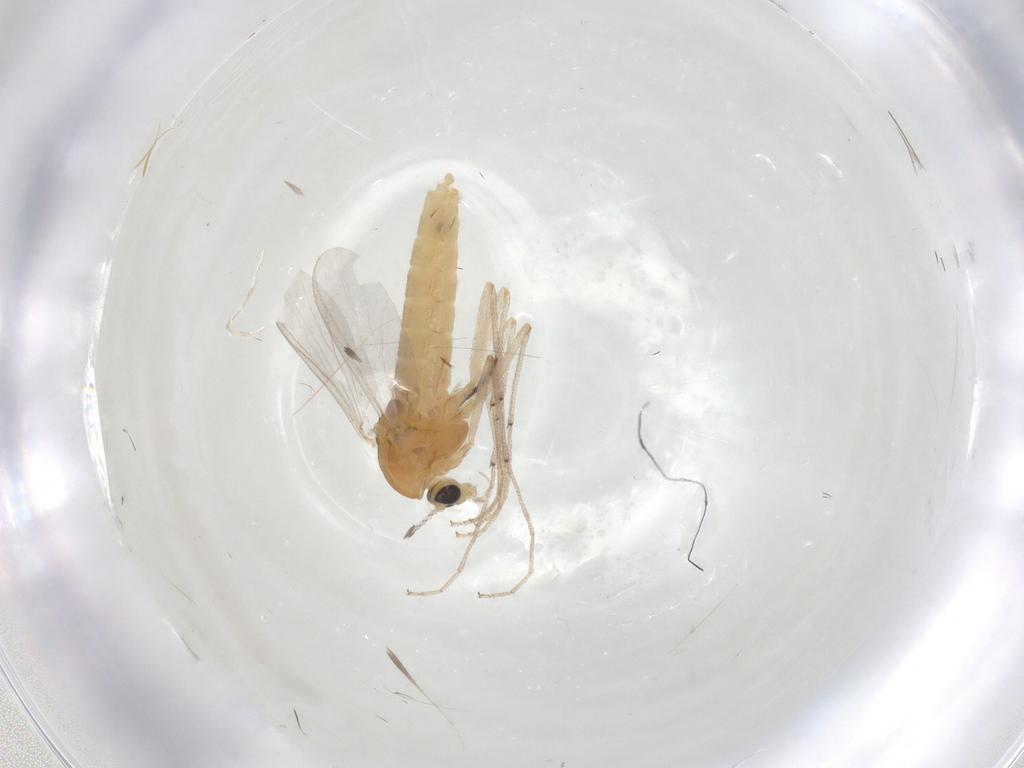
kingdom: Animalia
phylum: Arthropoda
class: Insecta
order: Diptera
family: Chironomidae
